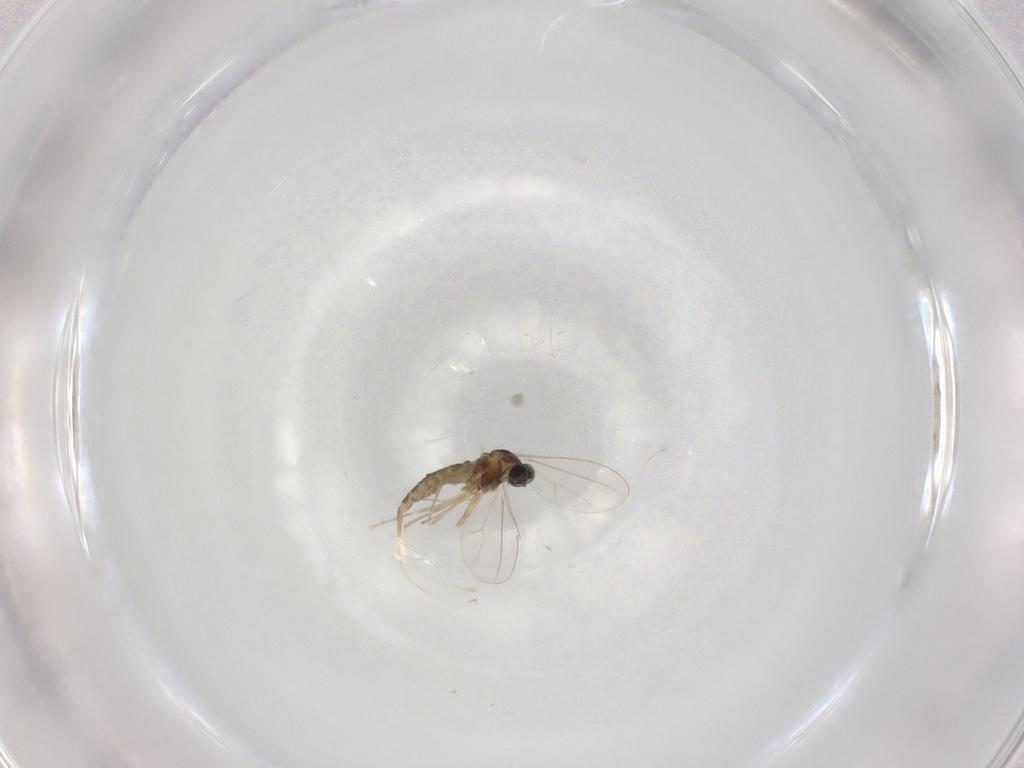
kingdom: Animalia
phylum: Arthropoda
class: Insecta
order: Diptera
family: Cecidomyiidae
